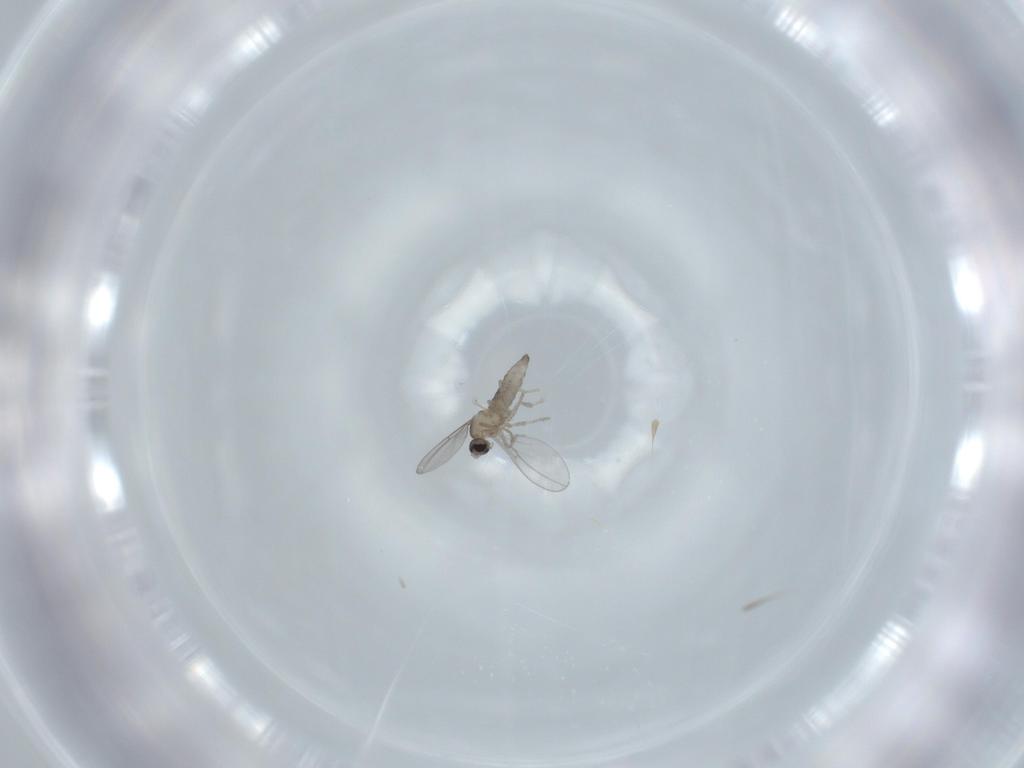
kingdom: Animalia
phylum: Arthropoda
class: Insecta
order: Diptera
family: Cecidomyiidae
